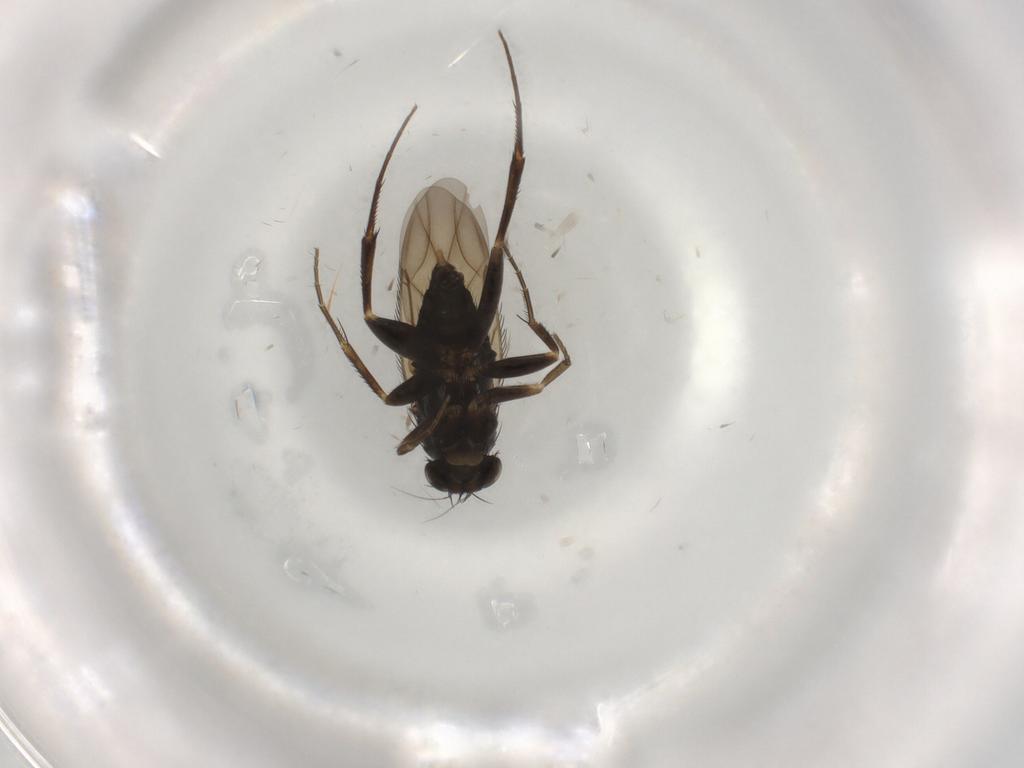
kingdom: Animalia
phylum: Arthropoda
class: Insecta
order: Diptera
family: Phoridae
